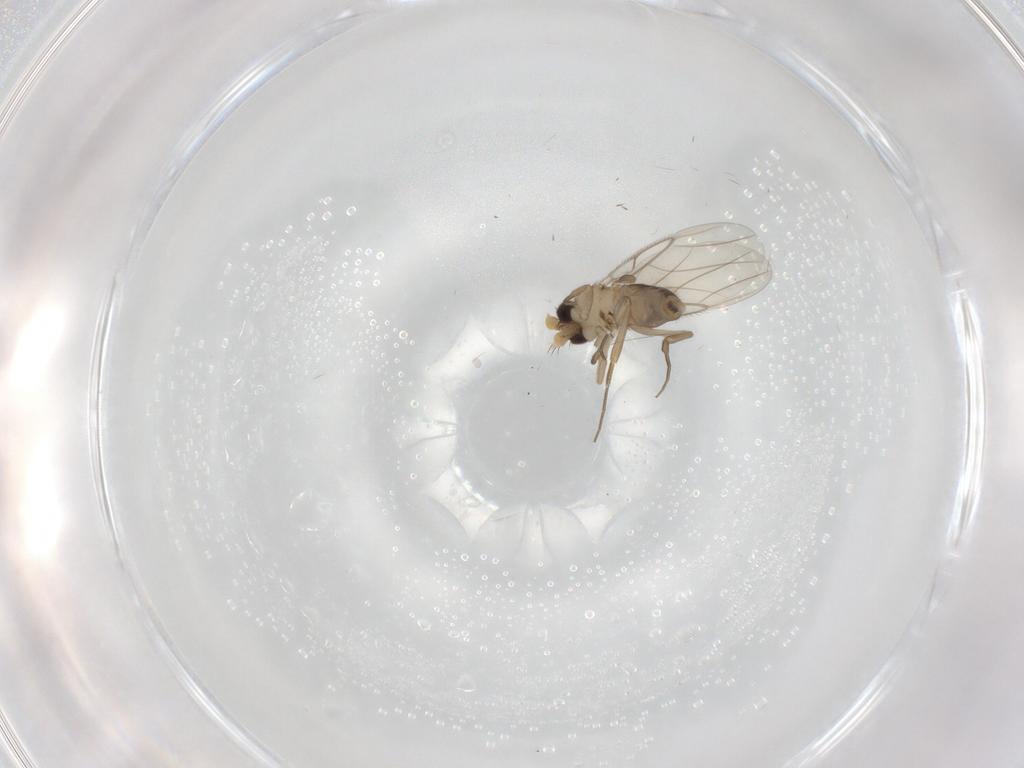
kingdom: Animalia
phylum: Arthropoda
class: Insecta
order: Diptera
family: Phoridae
